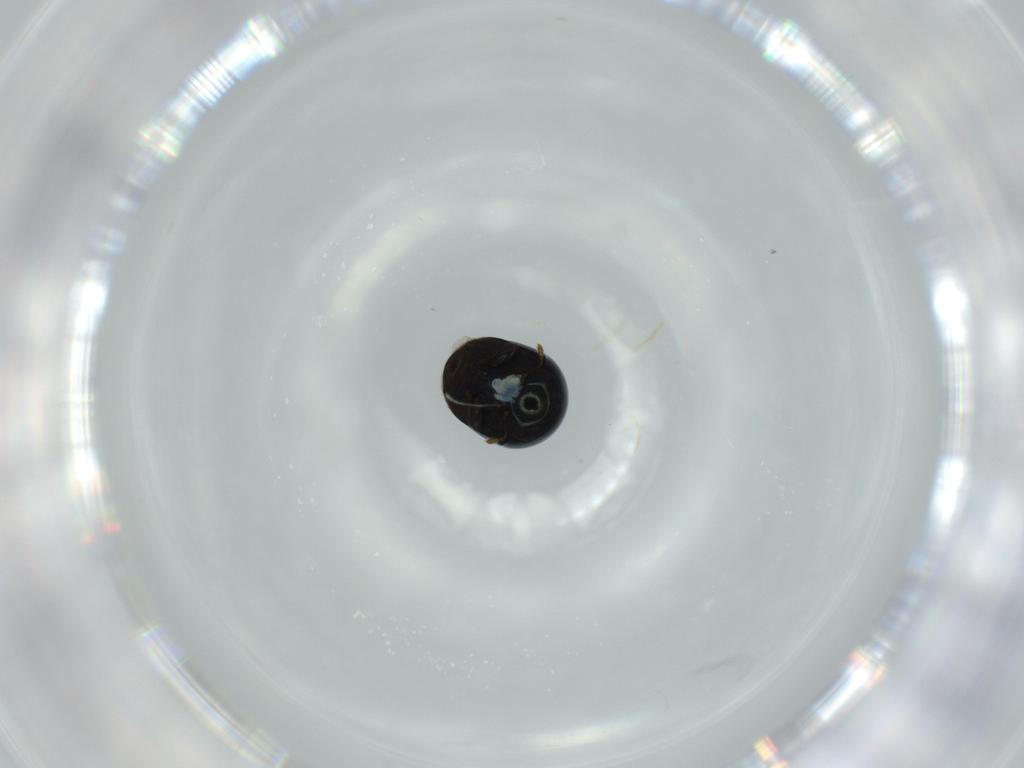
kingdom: Animalia
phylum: Arthropoda
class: Insecta
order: Coleoptera
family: Cybocephalidae
